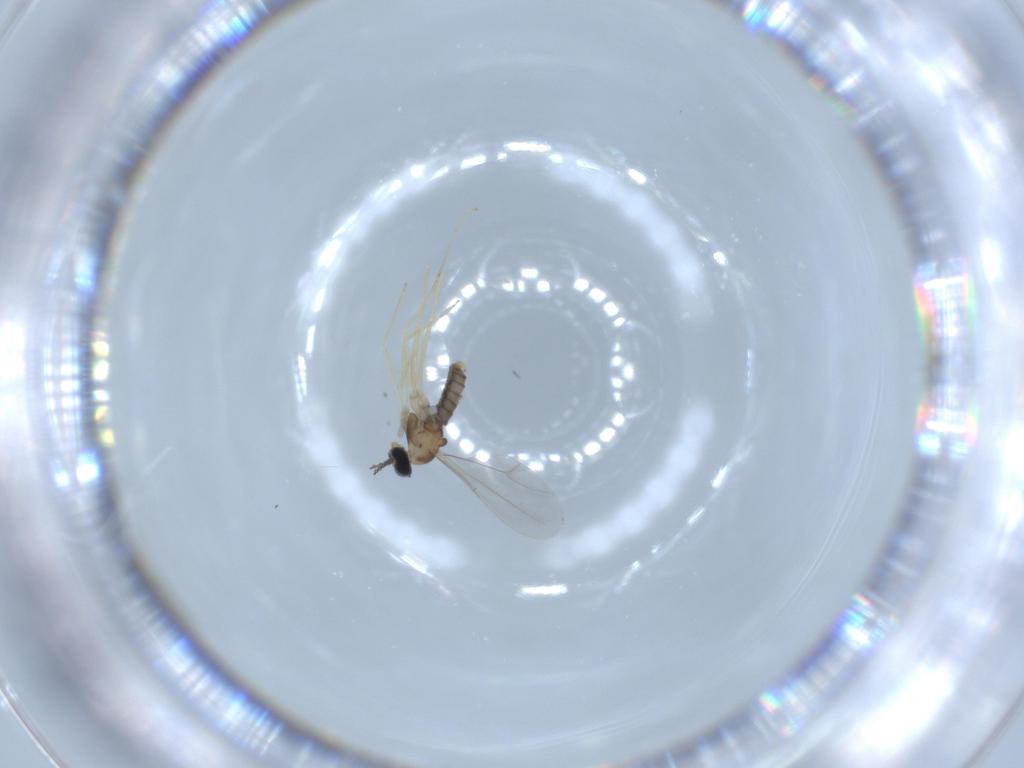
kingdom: Animalia
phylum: Arthropoda
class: Insecta
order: Diptera
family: Cecidomyiidae
